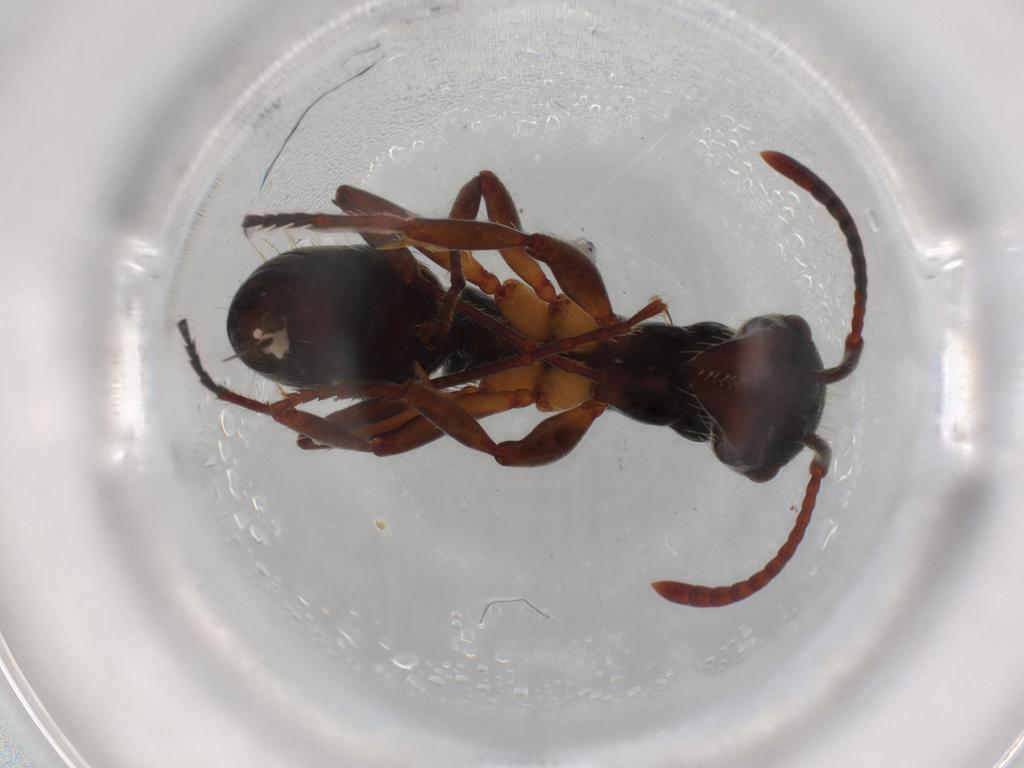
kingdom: Animalia
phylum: Arthropoda
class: Insecta
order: Hymenoptera
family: Formicidae
